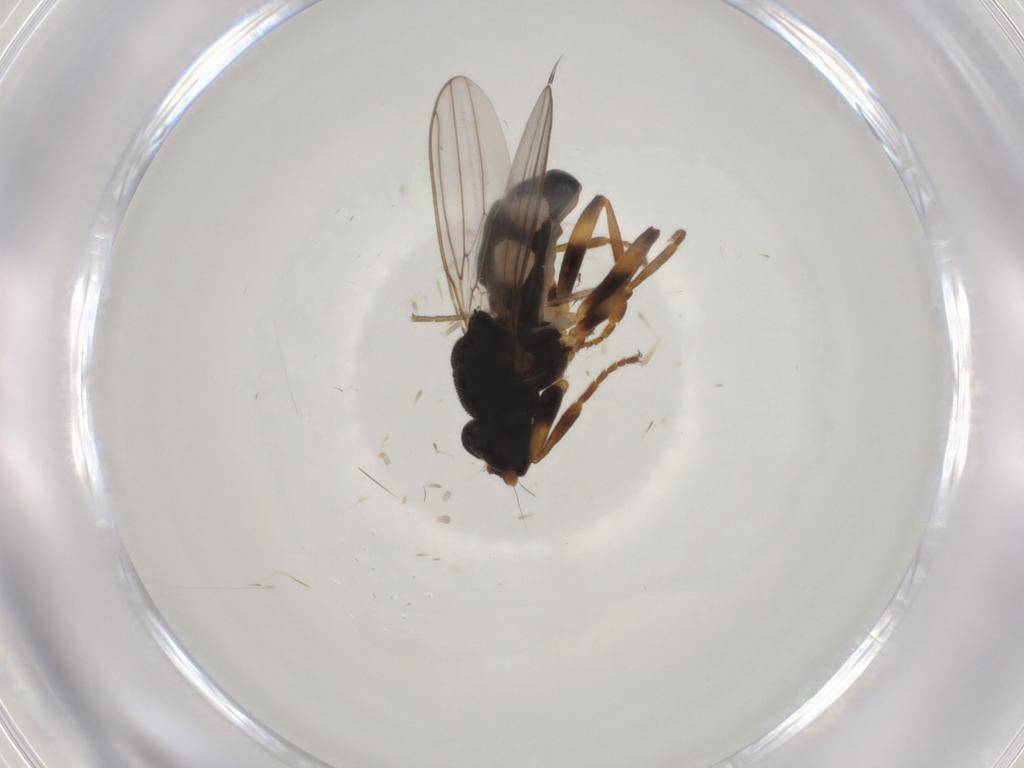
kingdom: Animalia
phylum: Arthropoda
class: Insecta
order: Diptera
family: Sphaeroceridae
